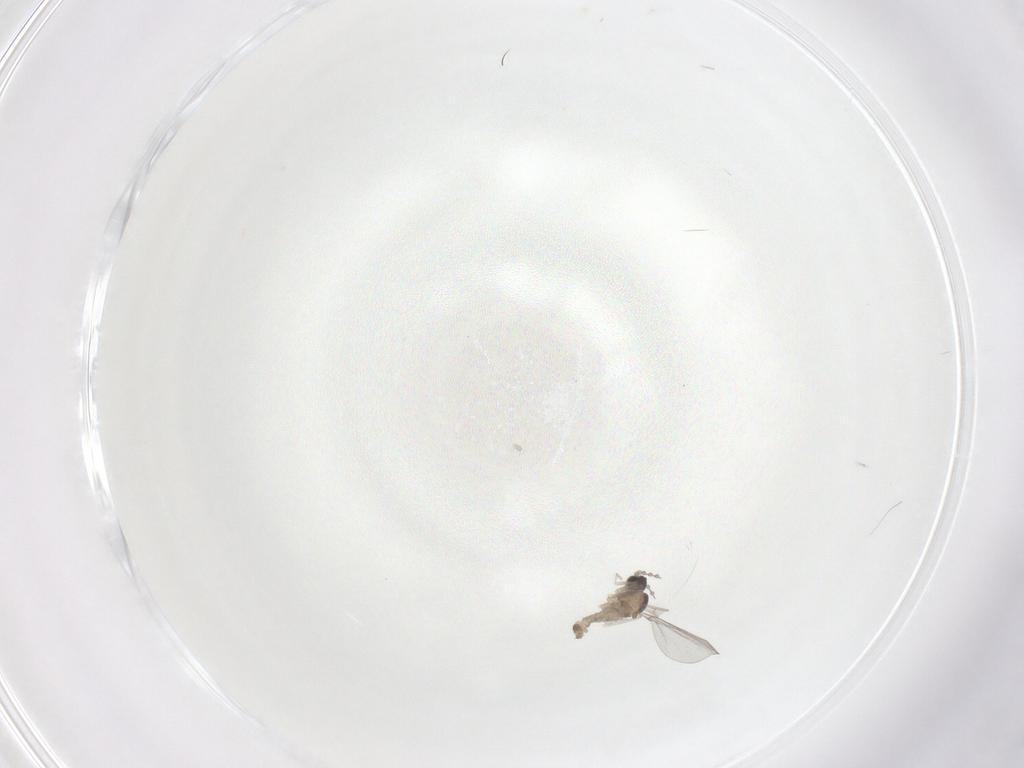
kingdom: Animalia
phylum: Arthropoda
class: Insecta
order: Diptera
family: Cecidomyiidae
